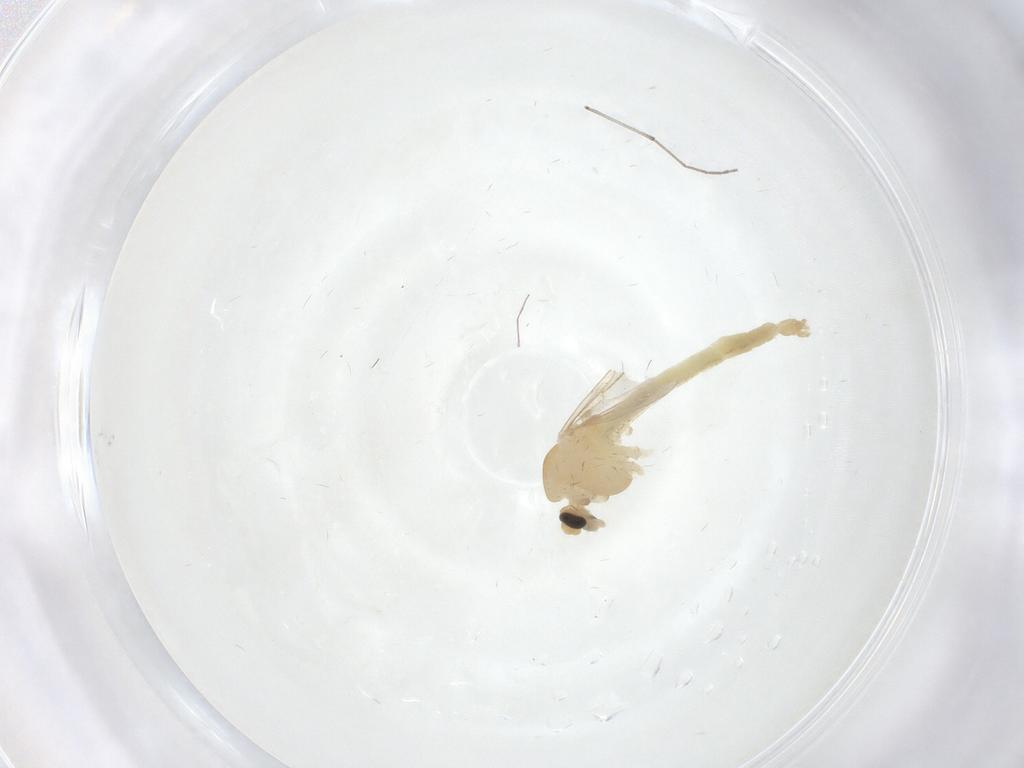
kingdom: Animalia
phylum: Arthropoda
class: Insecta
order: Diptera
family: Chironomidae
